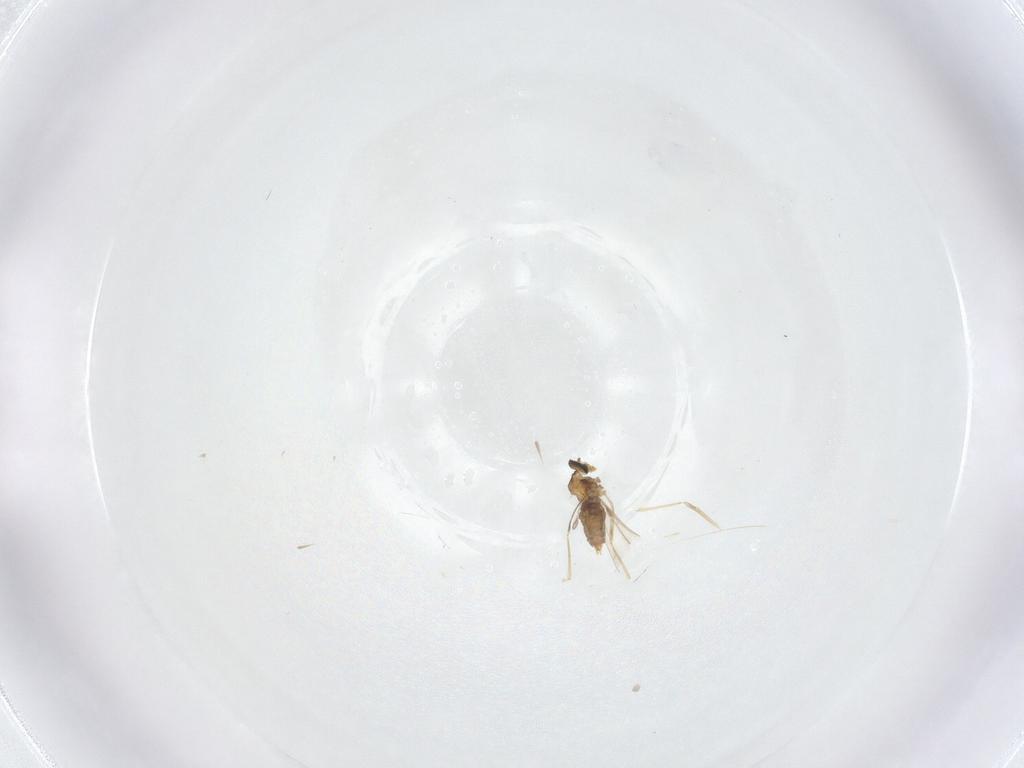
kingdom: Animalia
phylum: Arthropoda
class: Insecta
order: Diptera
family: Cecidomyiidae
